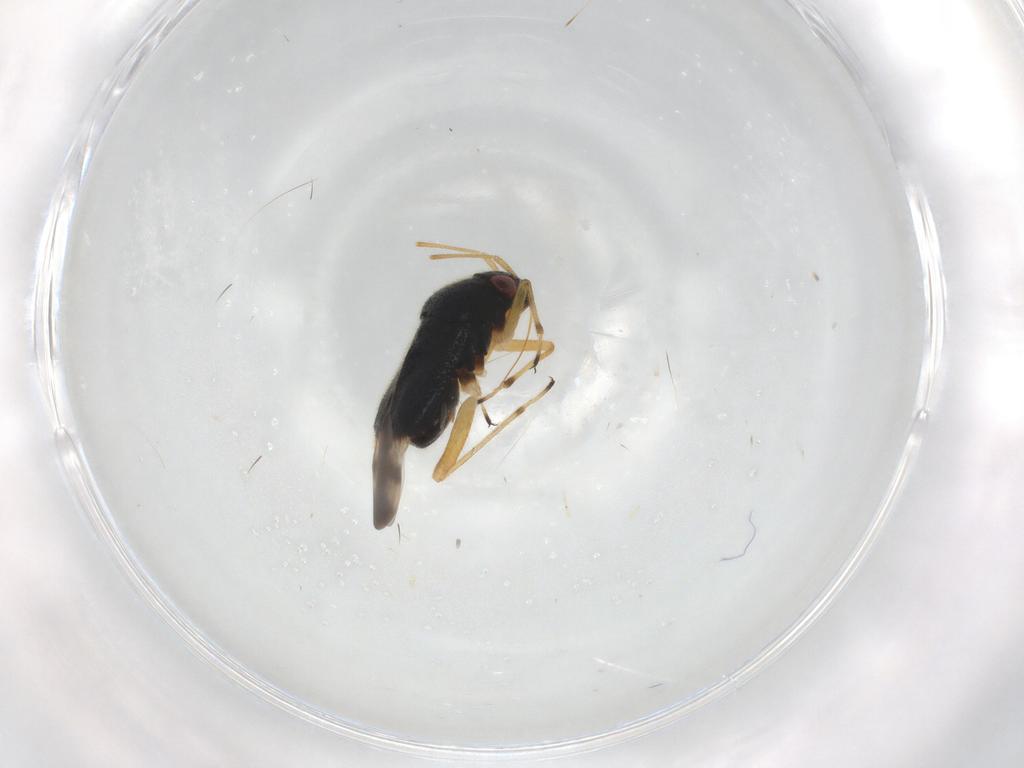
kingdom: Animalia
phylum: Arthropoda
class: Insecta
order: Hemiptera
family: Miridae
